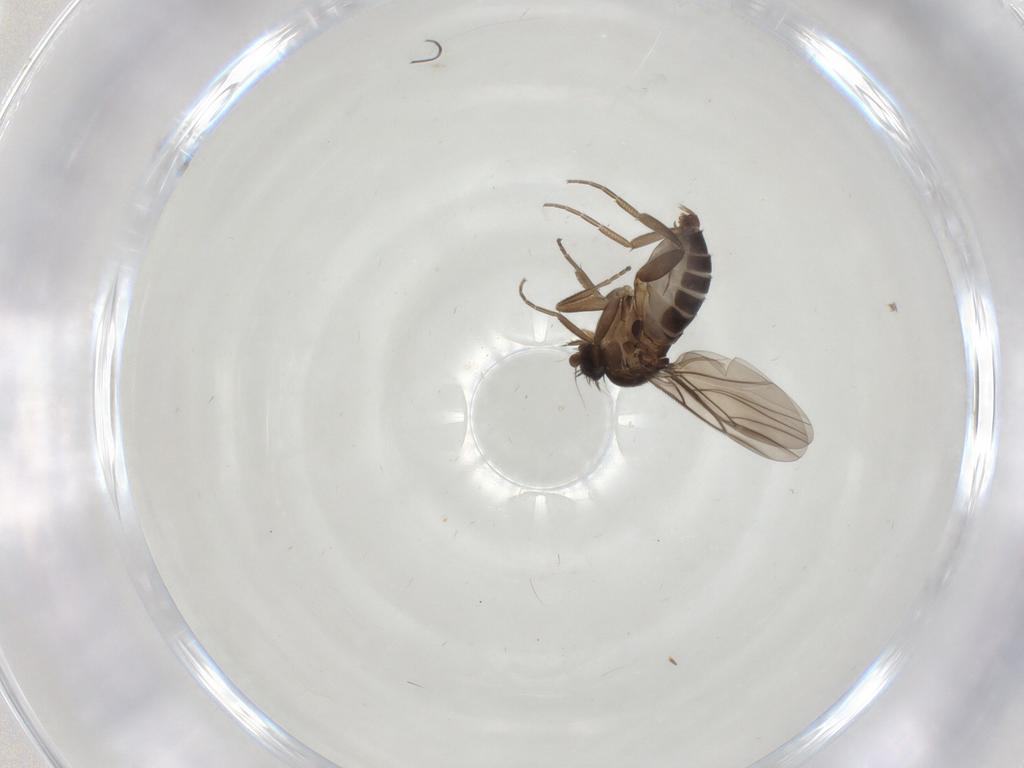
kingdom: Animalia
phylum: Arthropoda
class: Insecta
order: Diptera
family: Phoridae
